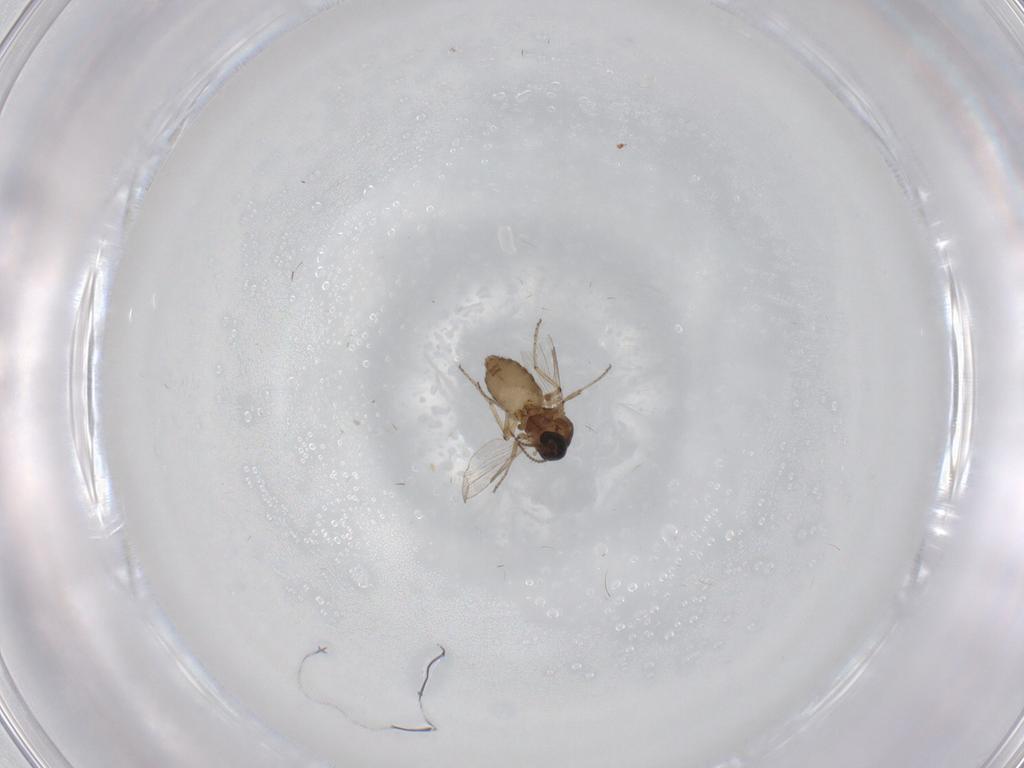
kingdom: Animalia
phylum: Arthropoda
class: Insecta
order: Diptera
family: Ceratopogonidae
